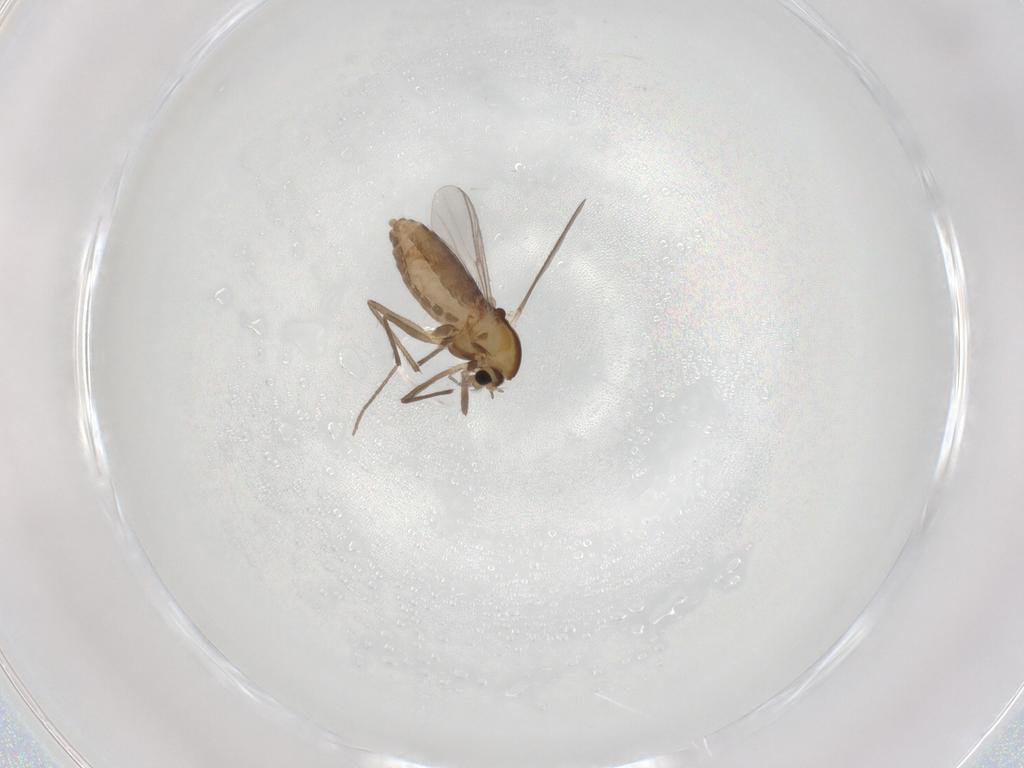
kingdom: Animalia
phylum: Arthropoda
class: Insecta
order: Diptera
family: Chironomidae
